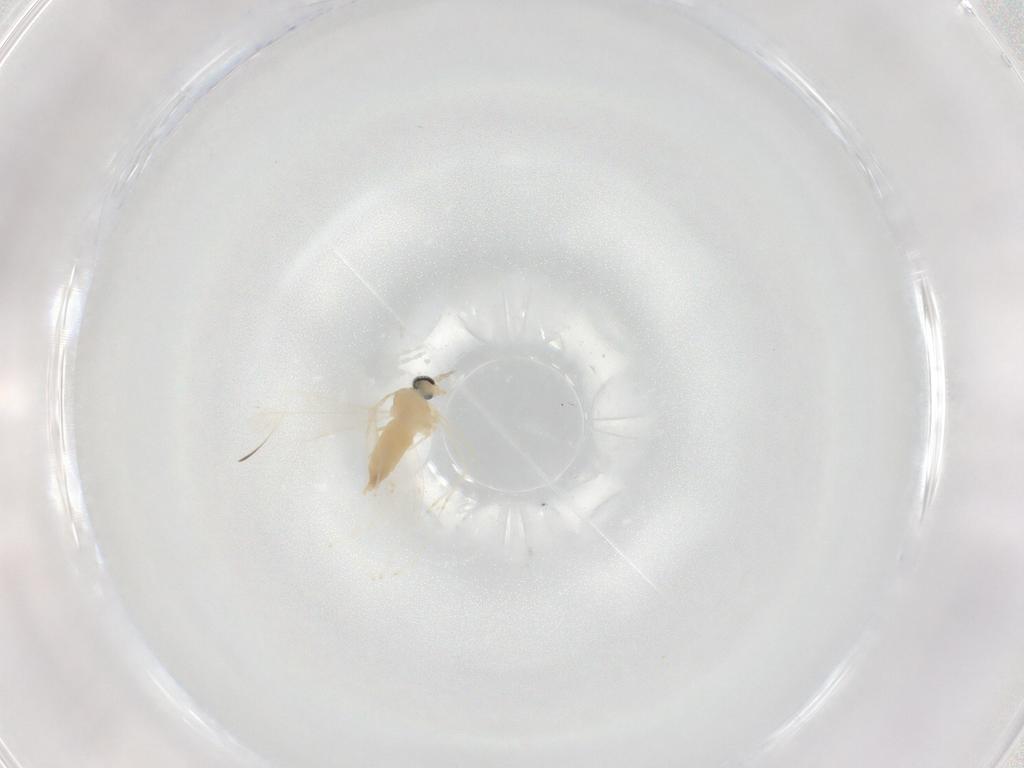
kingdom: Animalia
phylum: Arthropoda
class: Insecta
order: Diptera
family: Cecidomyiidae
